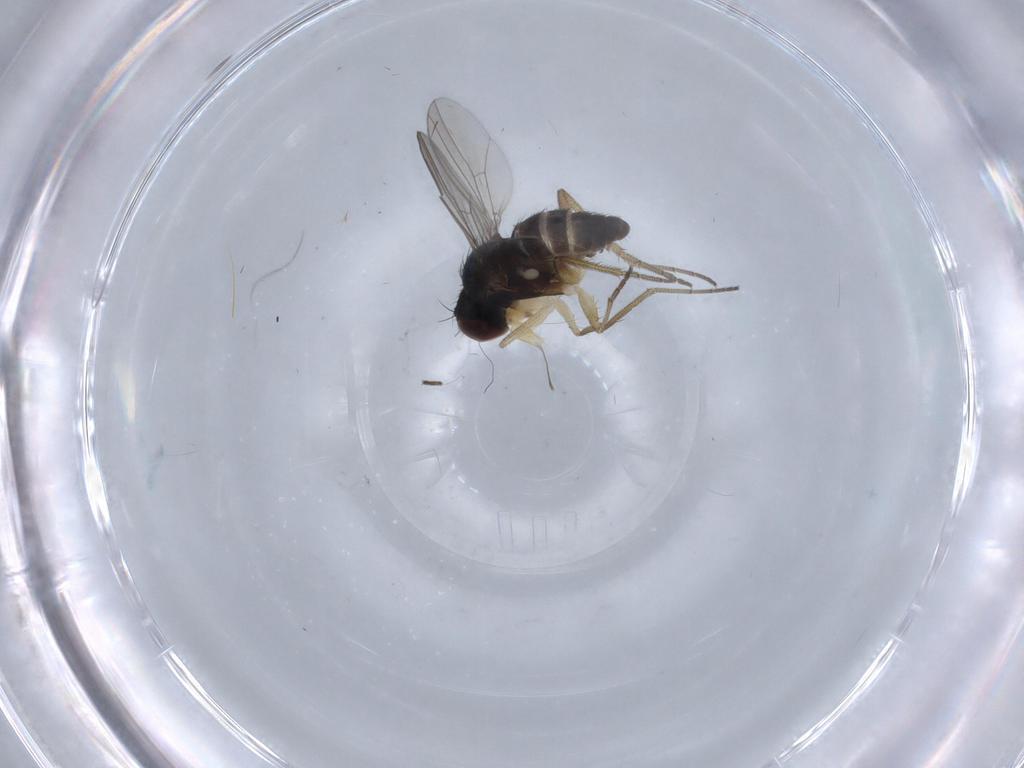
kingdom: Animalia
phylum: Arthropoda
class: Insecta
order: Diptera
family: Dolichopodidae
